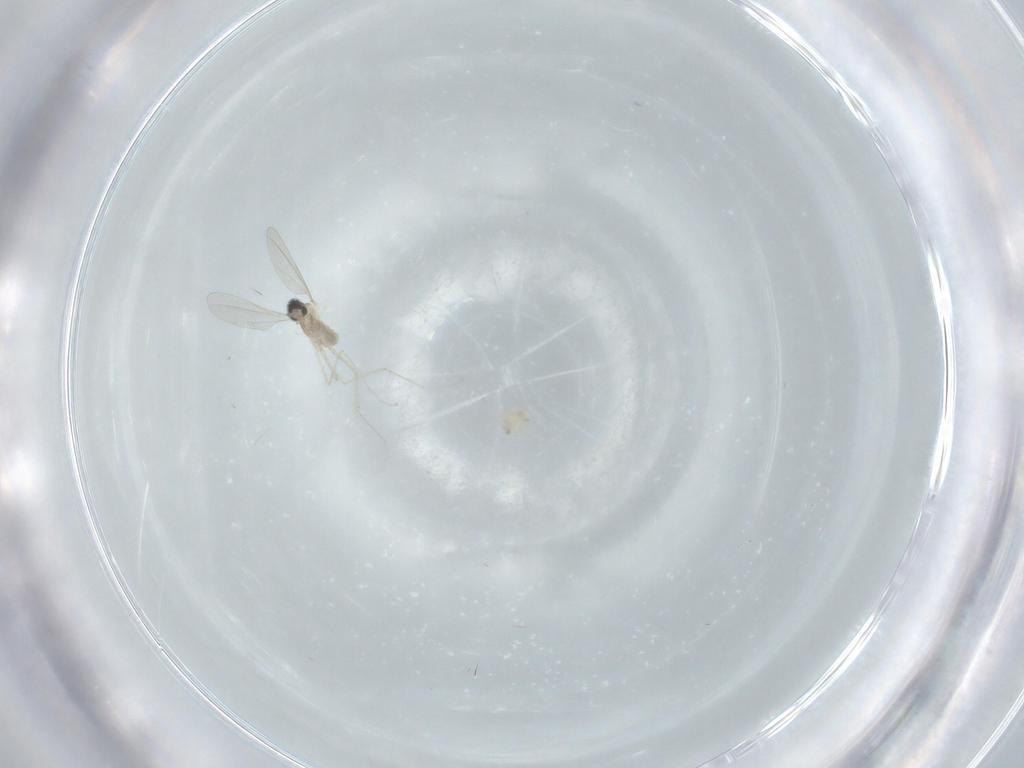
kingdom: Animalia
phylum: Arthropoda
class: Insecta
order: Diptera
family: Cecidomyiidae
